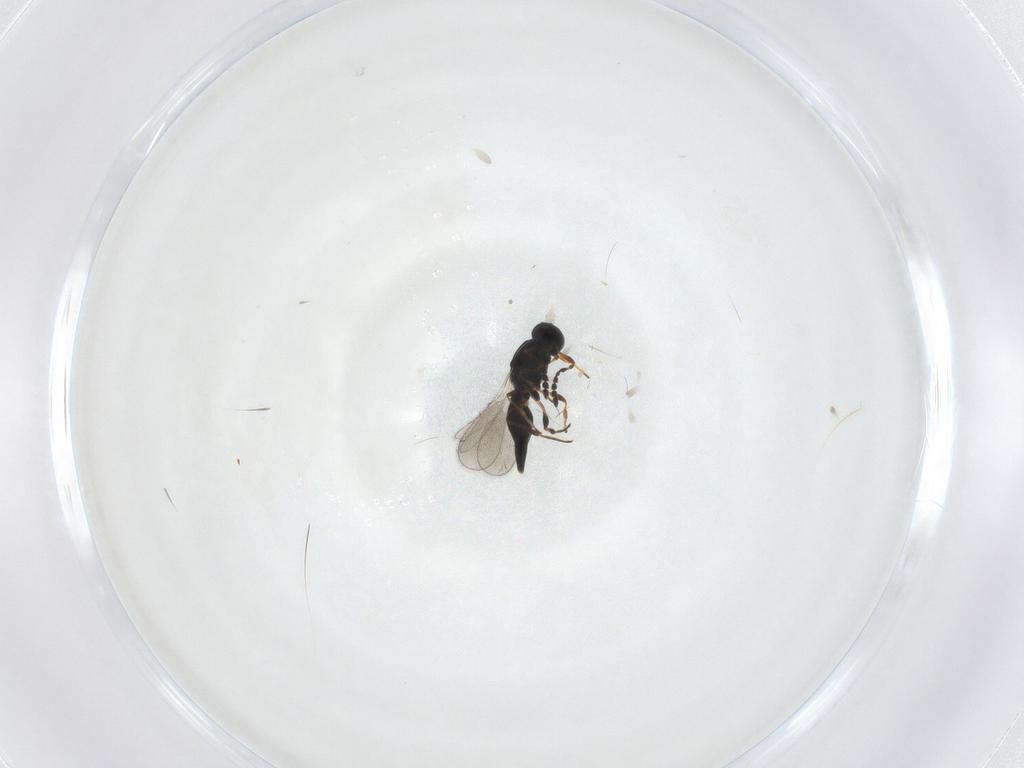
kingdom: Animalia
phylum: Arthropoda
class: Insecta
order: Hymenoptera
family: Platygastridae
